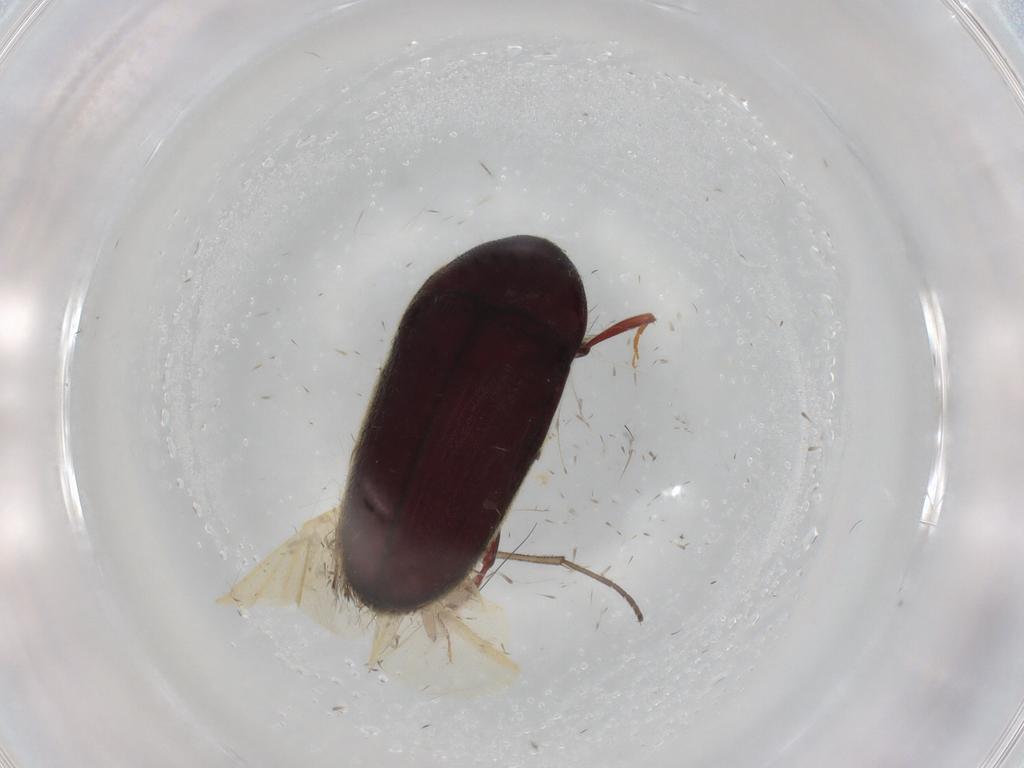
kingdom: Animalia
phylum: Arthropoda
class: Insecta
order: Coleoptera
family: Throscidae
